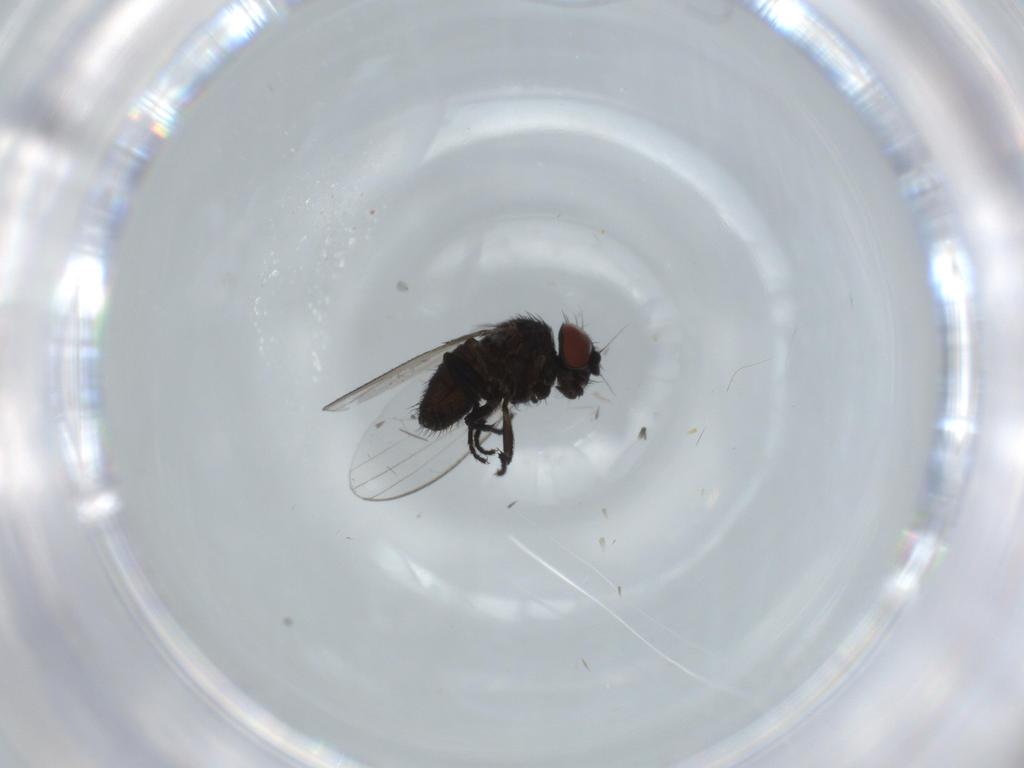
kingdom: Animalia
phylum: Arthropoda
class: Insecta
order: Diptera
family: Milichiidae
